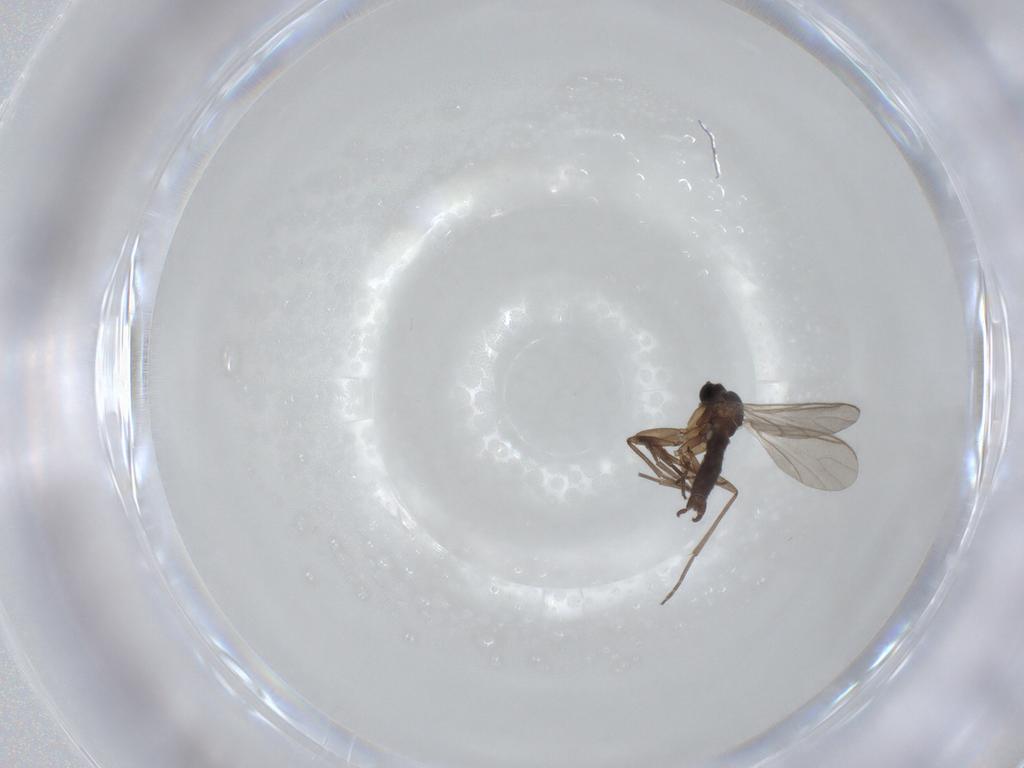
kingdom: Animalia
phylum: Arthropoda
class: Insecta
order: Diptera
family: Sciaridae
